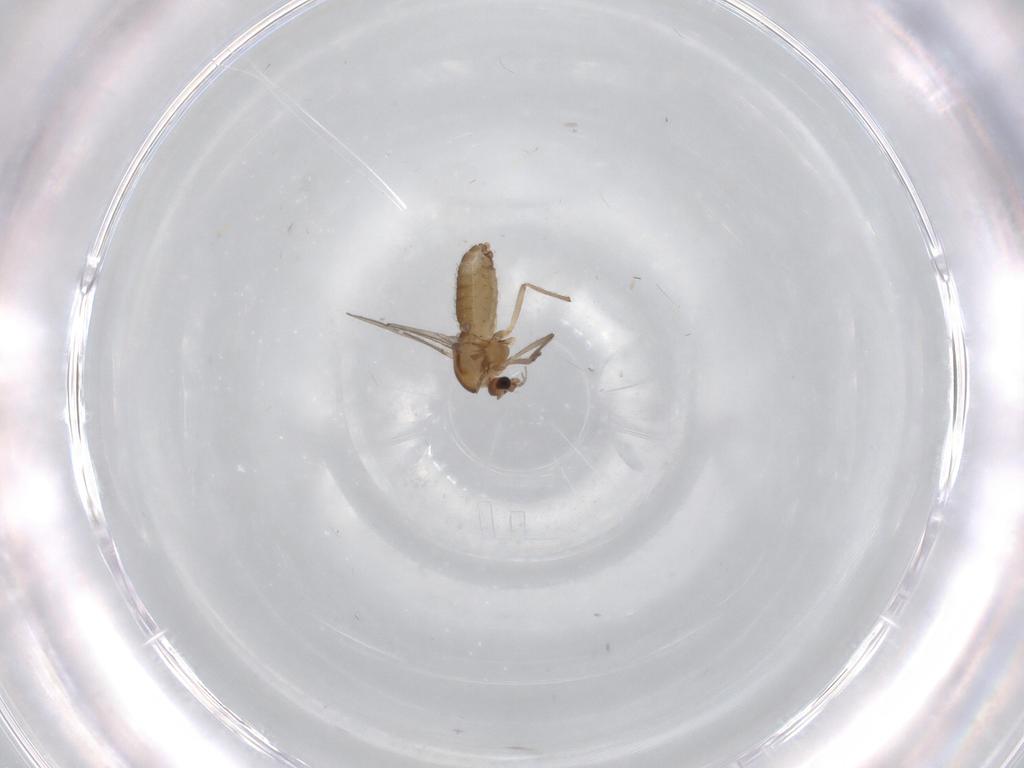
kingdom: Animalia
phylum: Arthropoda
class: Insecta
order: Diptera
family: Chironomidae
